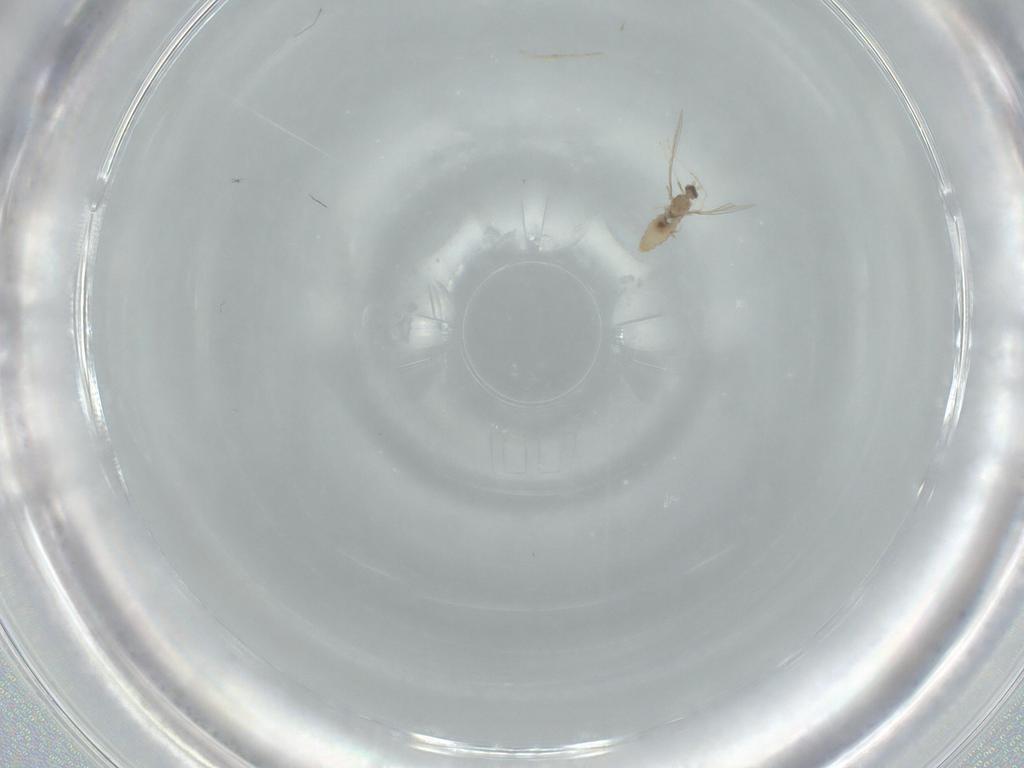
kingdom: Animalia
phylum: Arthropoda
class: Insecta
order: Diptera
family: Cecidomyiidae
